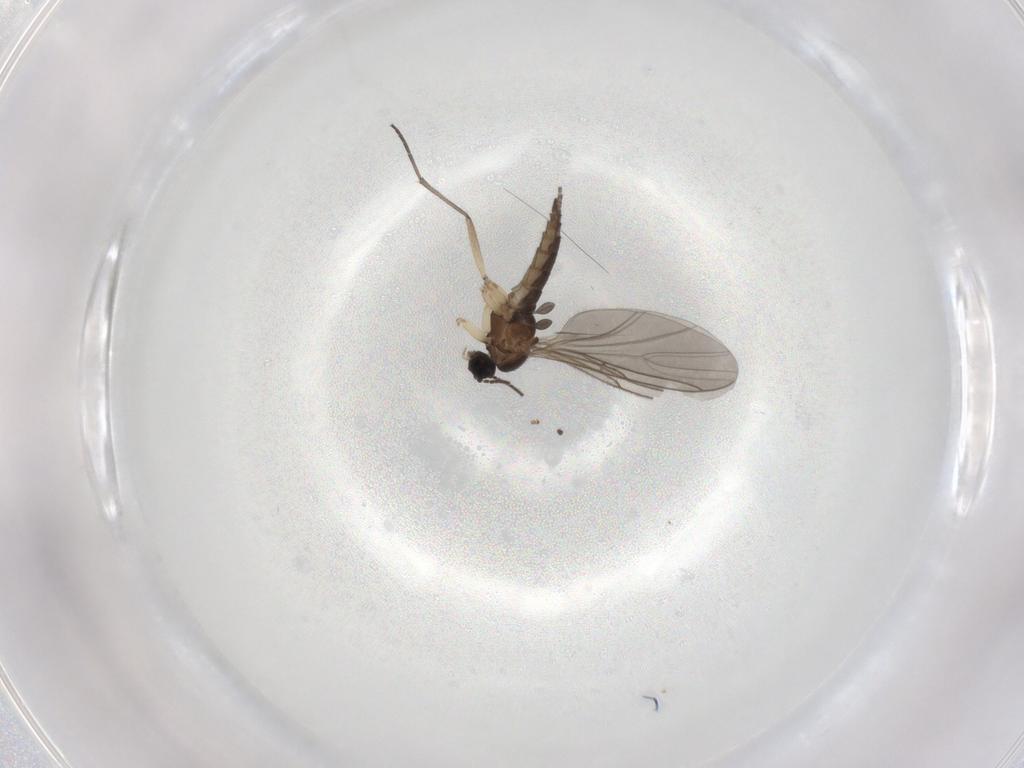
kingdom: Animalia
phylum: Arthropoda
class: Insecta
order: Diptera
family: Sciaridae
